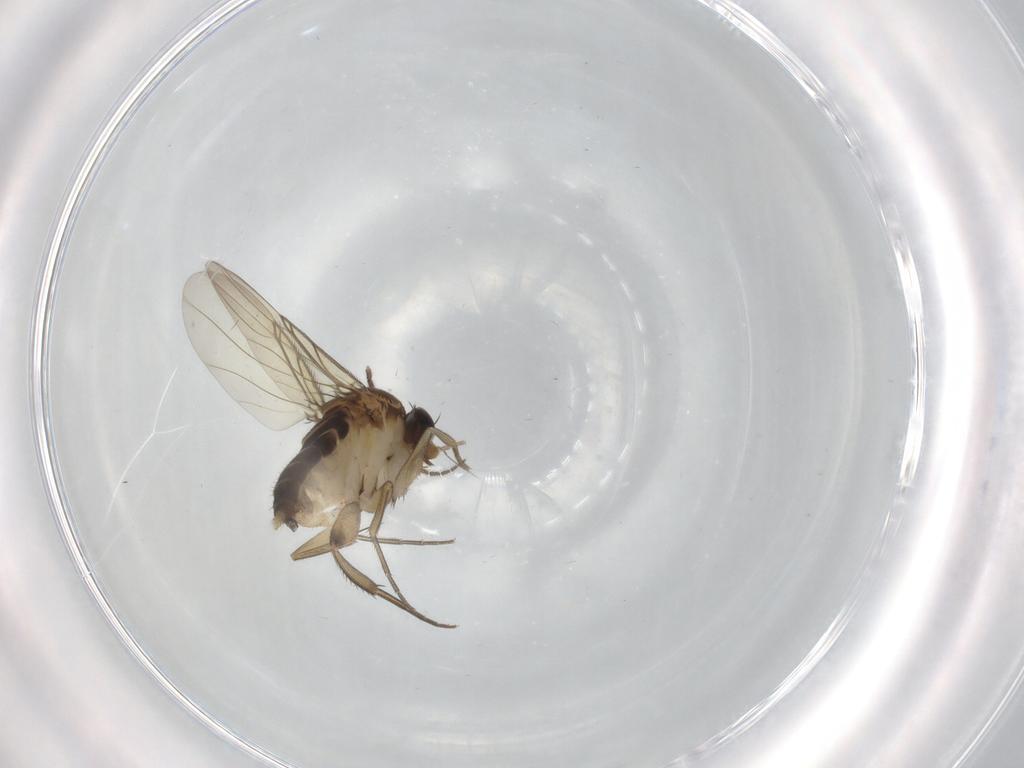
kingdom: Animalia
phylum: Arthropoda
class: Insecta
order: Diptera
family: Phoridae
